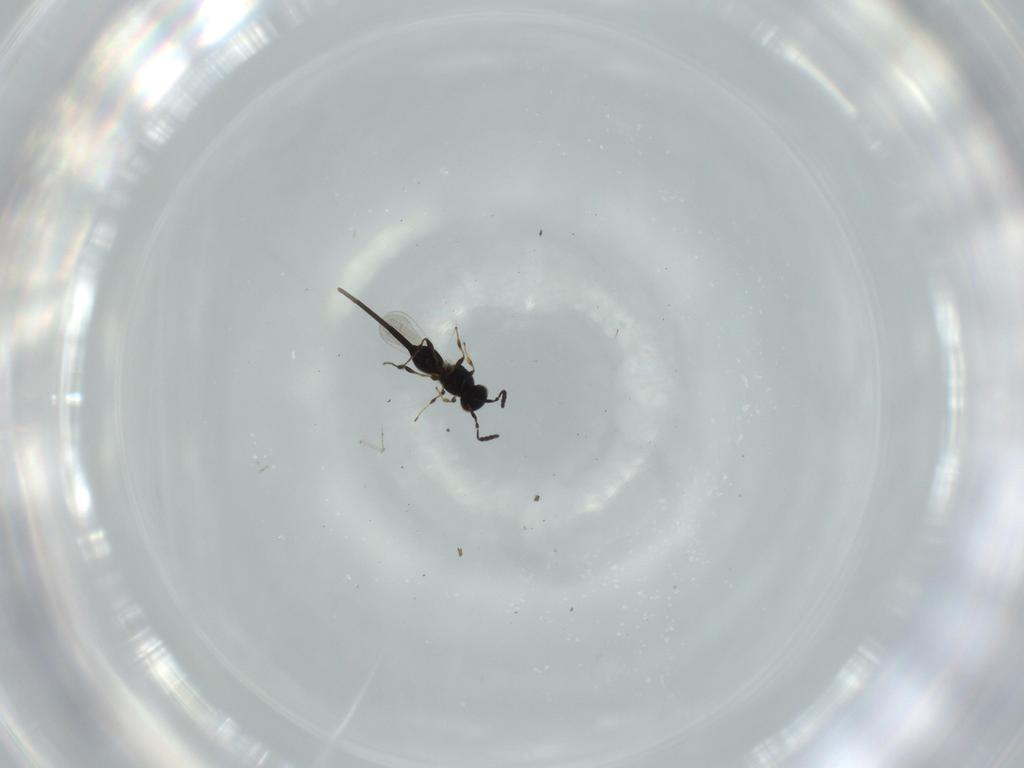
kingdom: Animalia
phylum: Arthropoda
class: Insecta
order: Hymenoptera
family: Platygastridae
